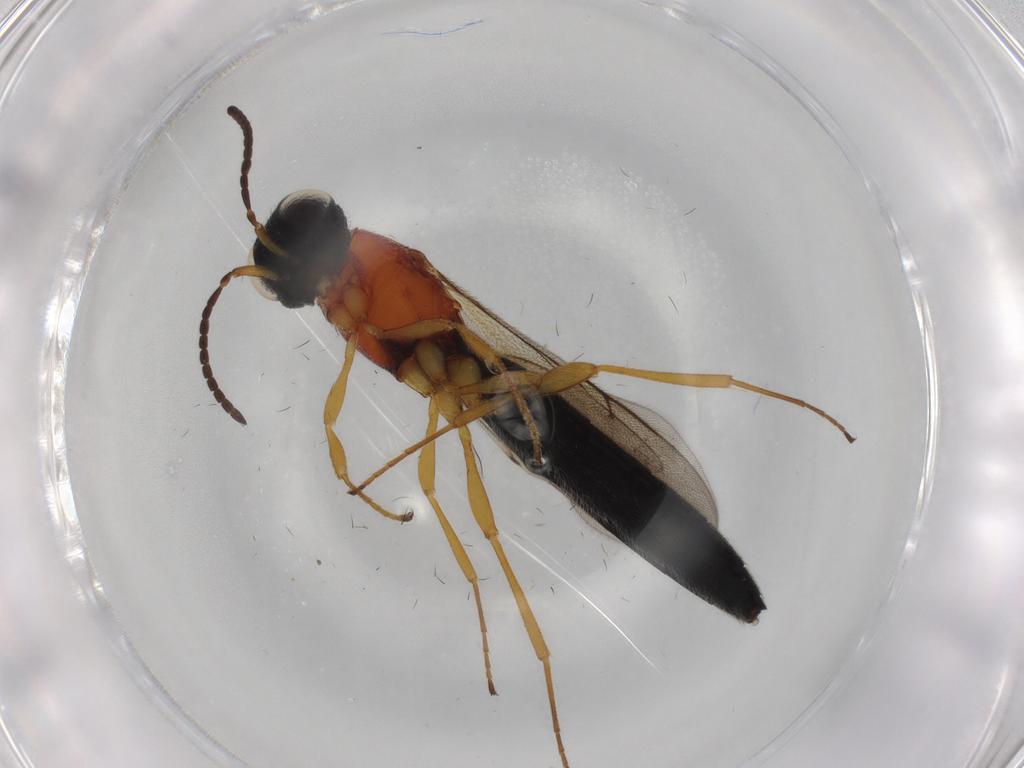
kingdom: Animalia
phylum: Arthropoda
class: Insecta
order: Hymenoptera
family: Scelionidae
